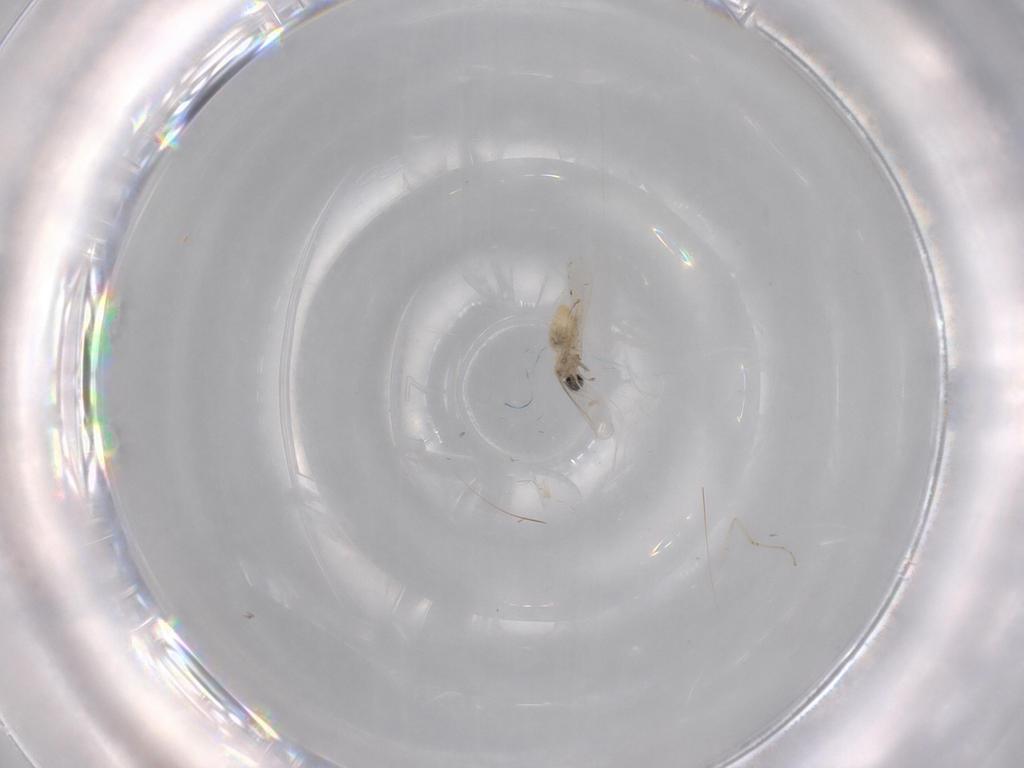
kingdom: Animalia
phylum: Arthropoda
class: Insecta
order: Diptera
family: Cecidomyiidae
